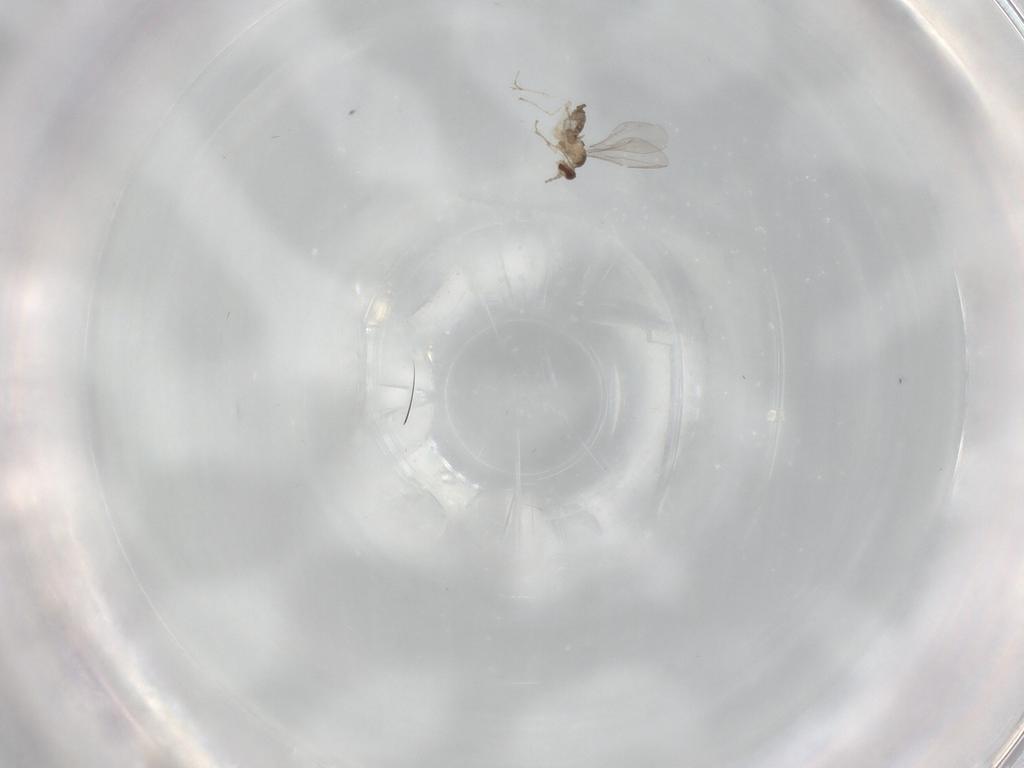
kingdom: Animalia
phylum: Arthropoda
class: Insecta
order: Diptera
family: Cecidomyiidae
